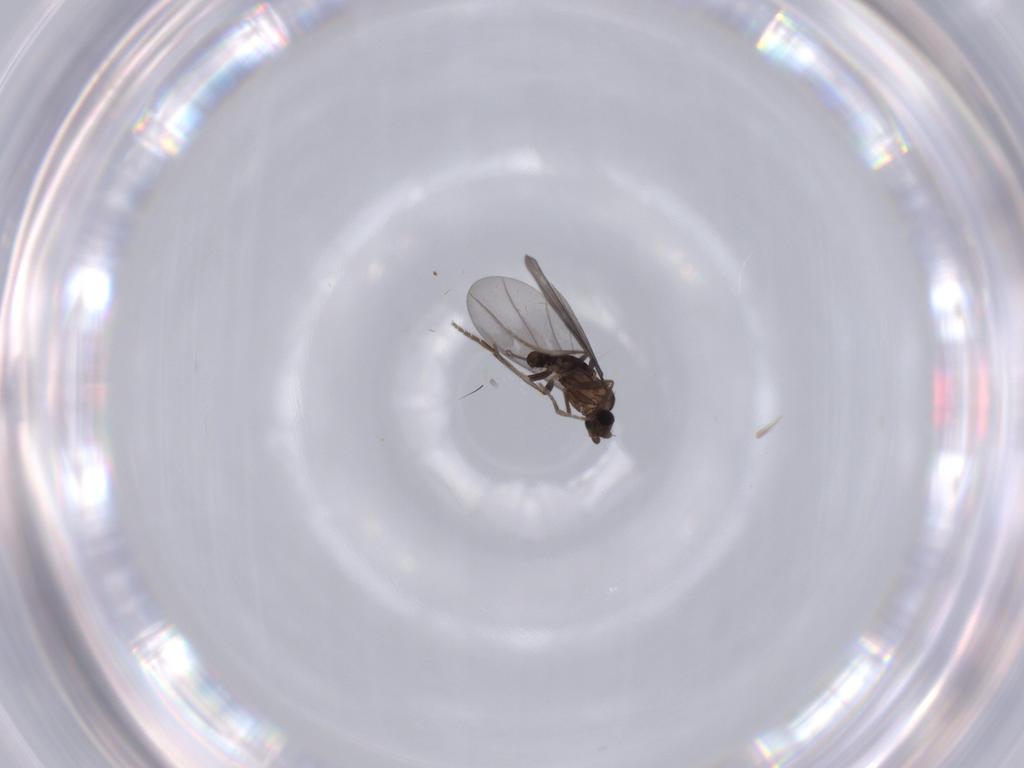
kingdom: Animalia
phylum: Arthropoda
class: Insecta
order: Diptera
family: Phoridae
